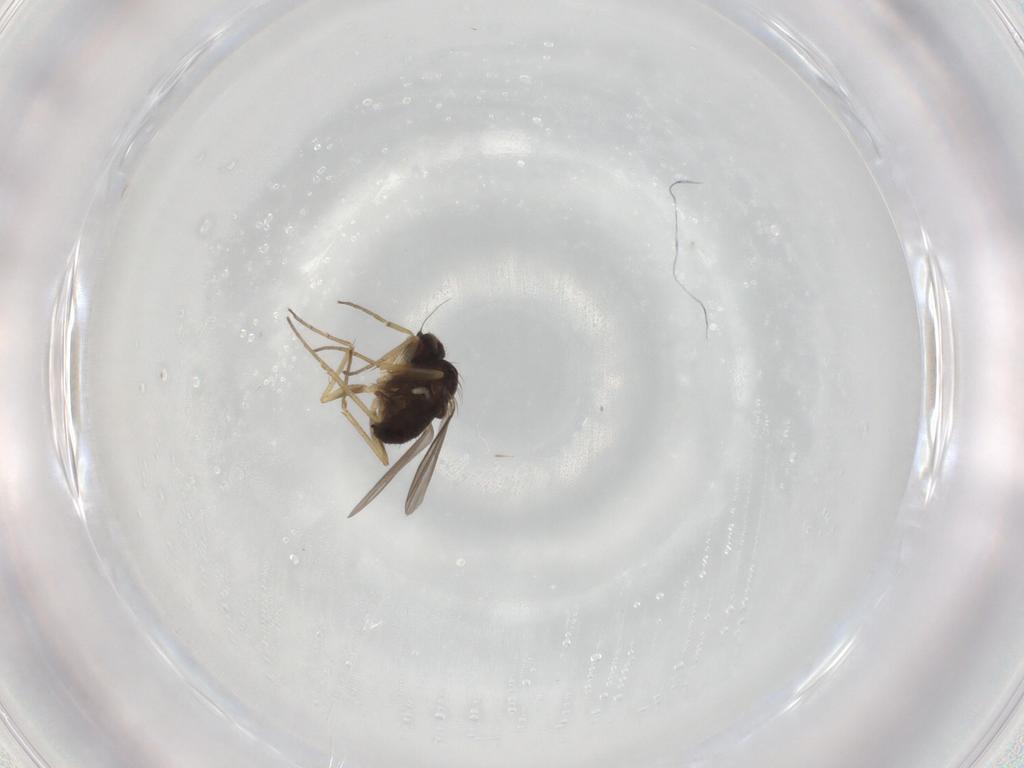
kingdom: Animalia
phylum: Arthropoda
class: Insecta
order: Diptera
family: Dolichopodidae
